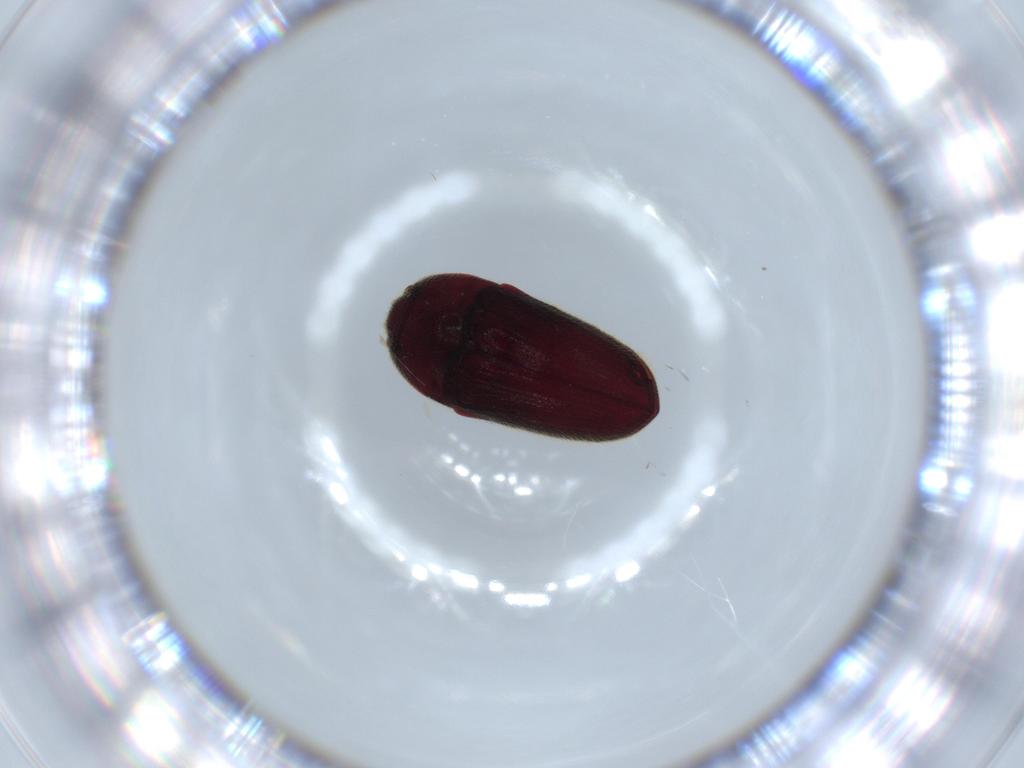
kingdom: Animalia
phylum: Arthropoda
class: Insecta
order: Coleoptera
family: Throscidae
